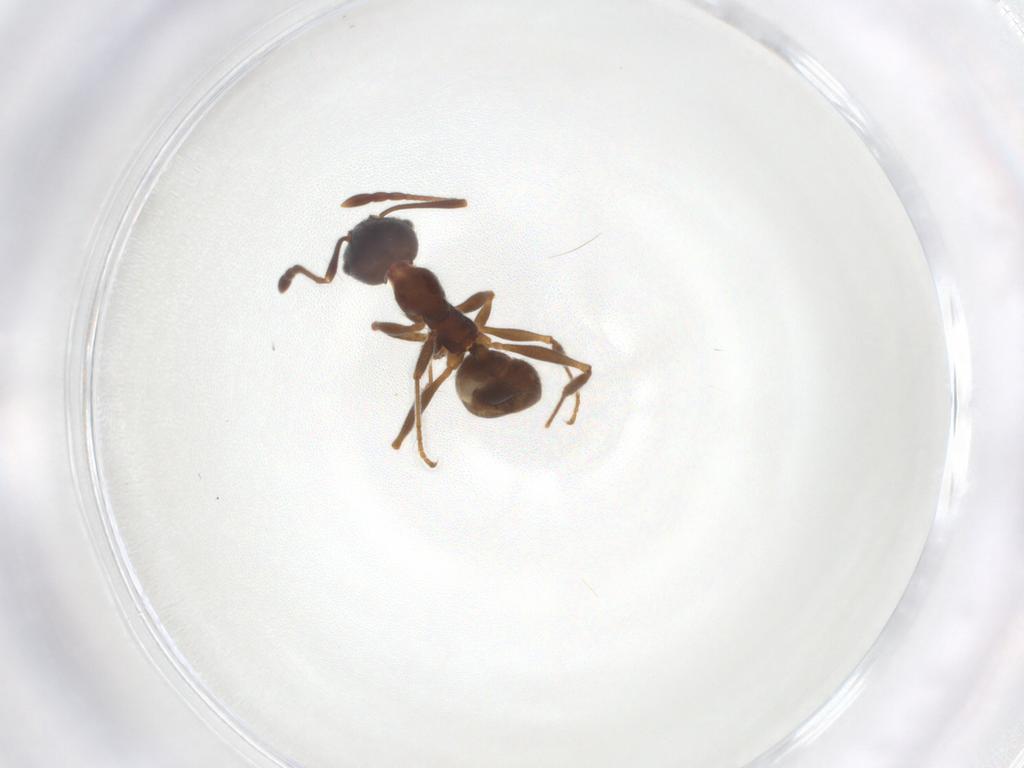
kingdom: Animalia
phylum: Arthropoda
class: Insecta
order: Hymenoptera
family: Formicidae
